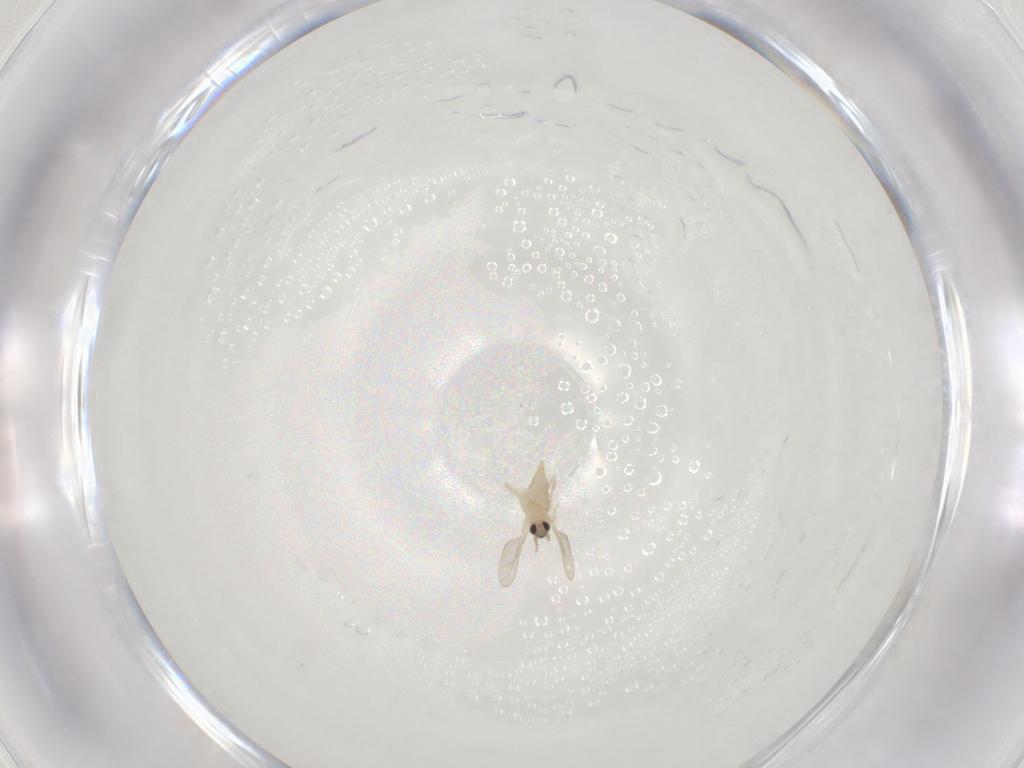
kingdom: Animalia
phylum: Arthropoda
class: Insecta
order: Diptera
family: Cecidomyiidae
